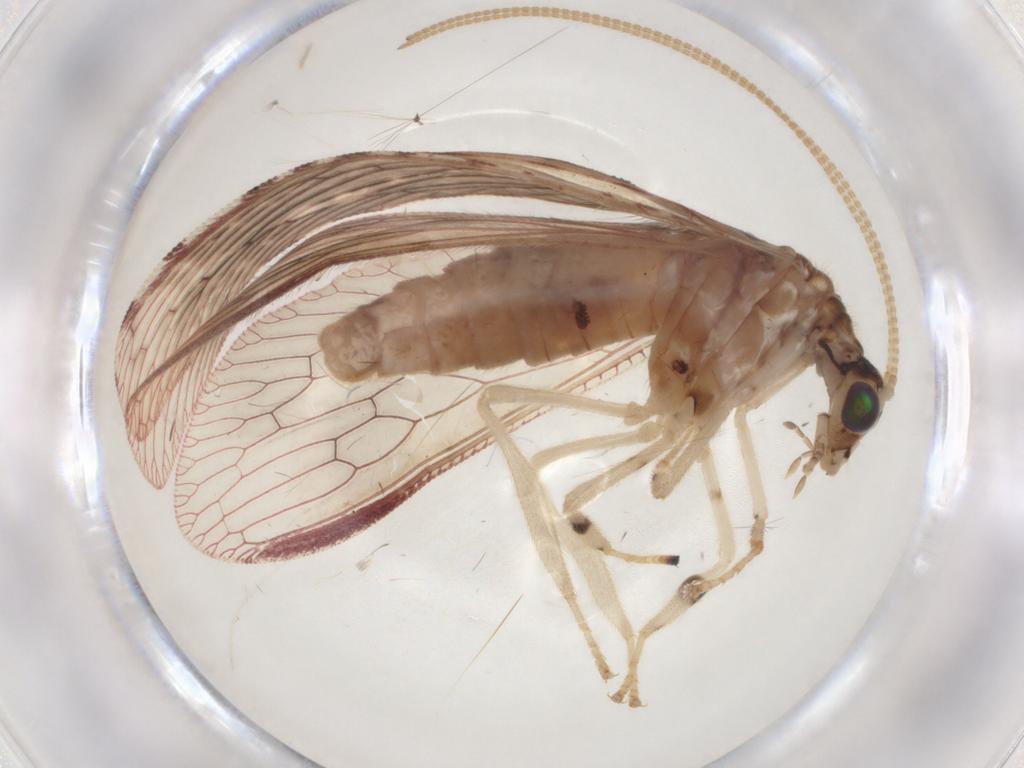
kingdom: Animalia
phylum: Arthropoda
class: Insecta
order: Neuroptera
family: Hemerobiidae
